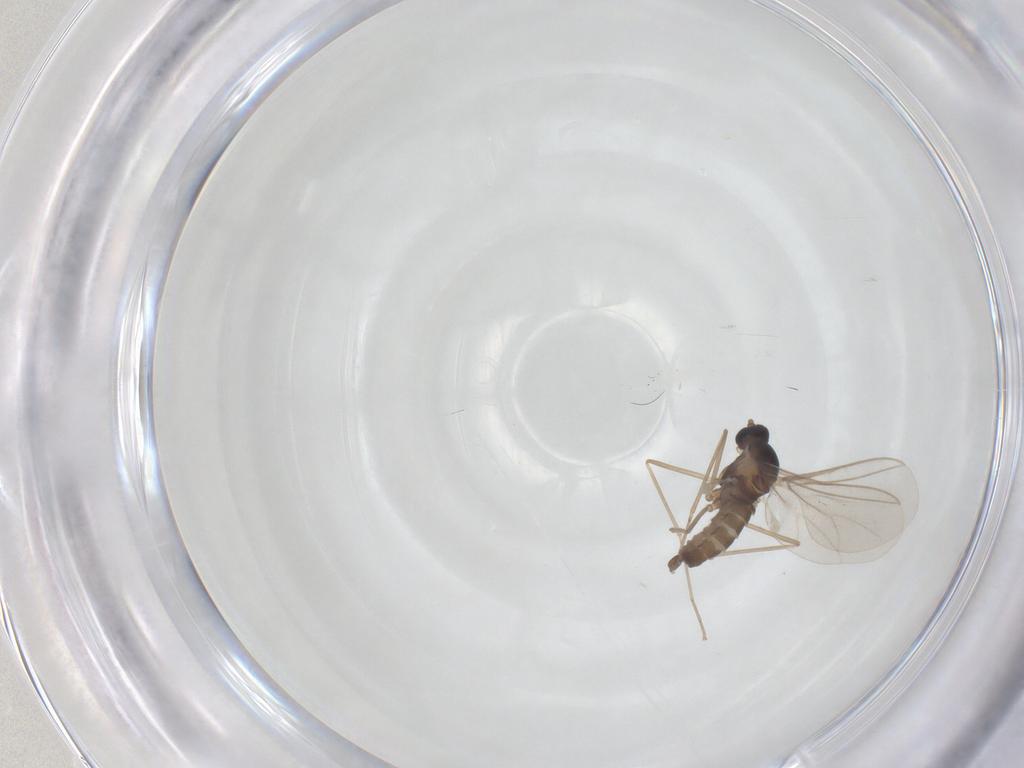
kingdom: Animalia
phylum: Arthropoda
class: Insecta
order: Diptera
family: Cecidomyiidae
